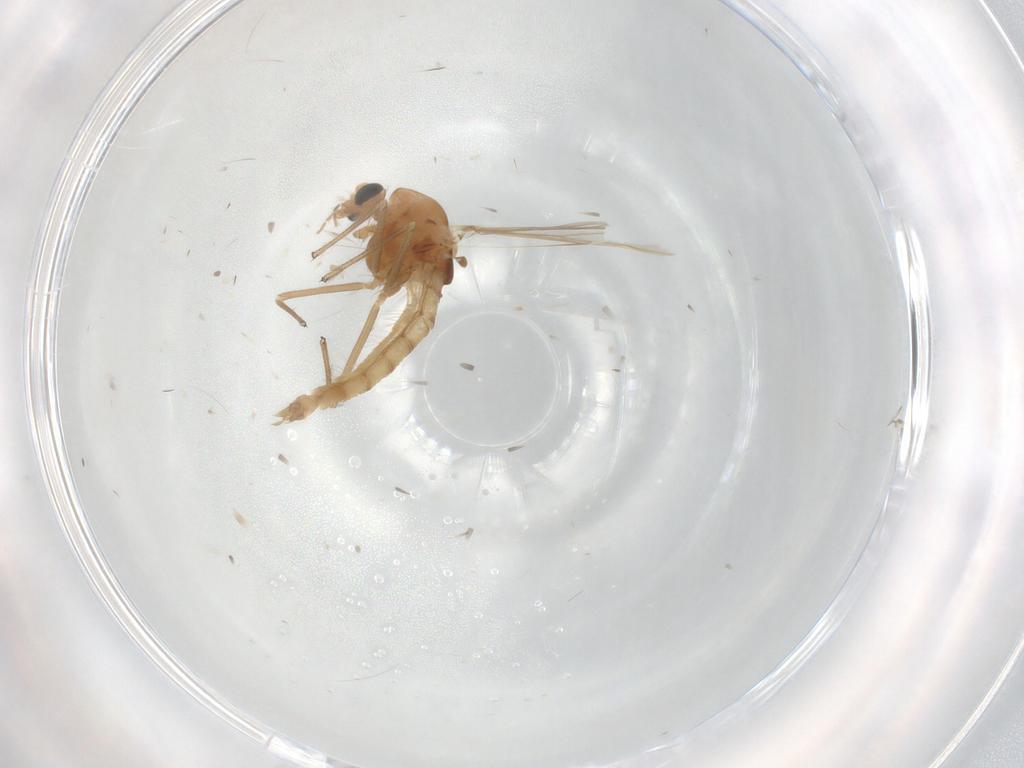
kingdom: Animalia
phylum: Arthropoda
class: Insecta
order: Diptera
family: Chironomidae
